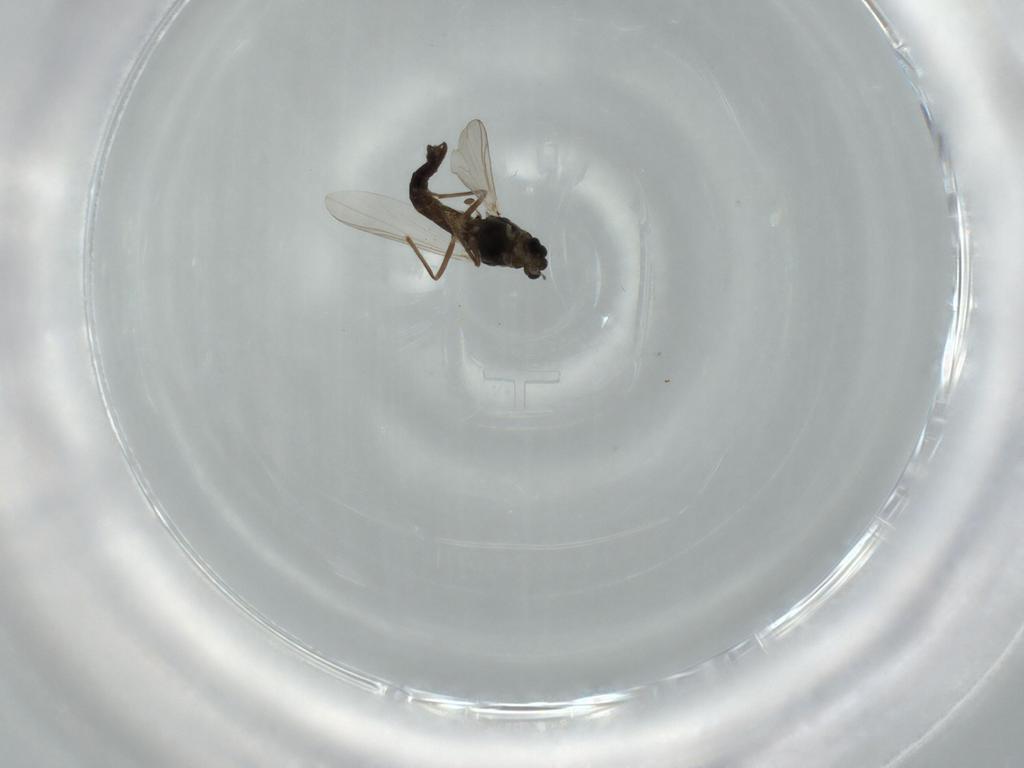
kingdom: Animalia
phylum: Arthropoda
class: Insecta
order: Diptera
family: Chironomidae
